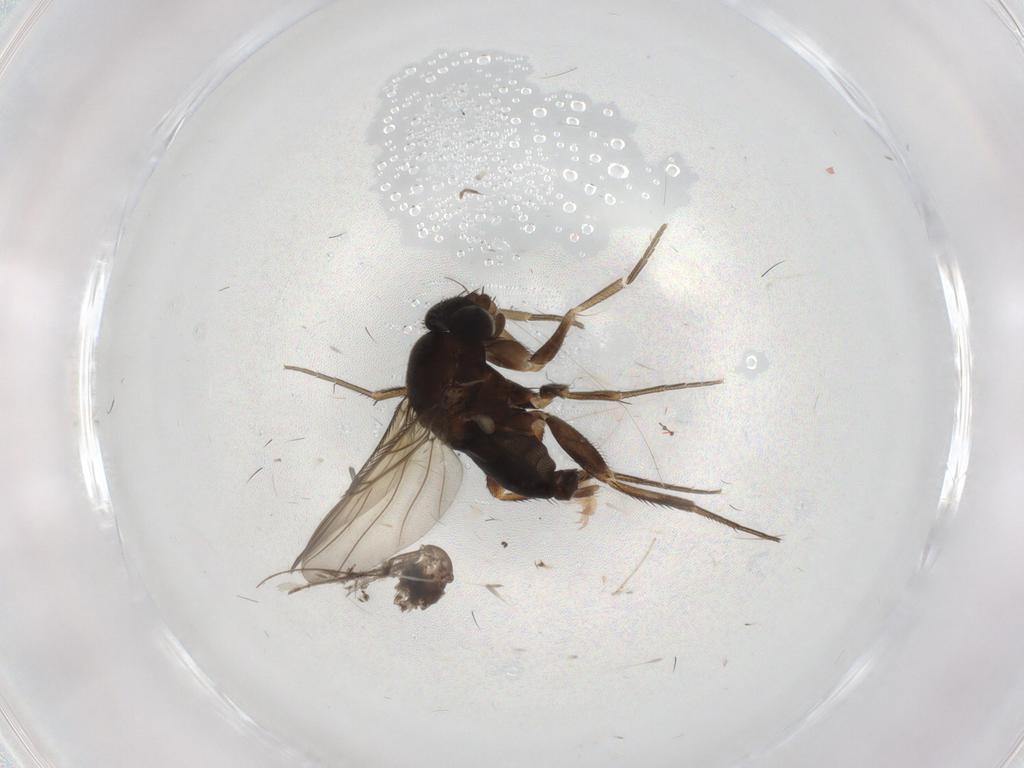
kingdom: Animalia
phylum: Arthropoda
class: Insecta
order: Diptera
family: Phoridae
